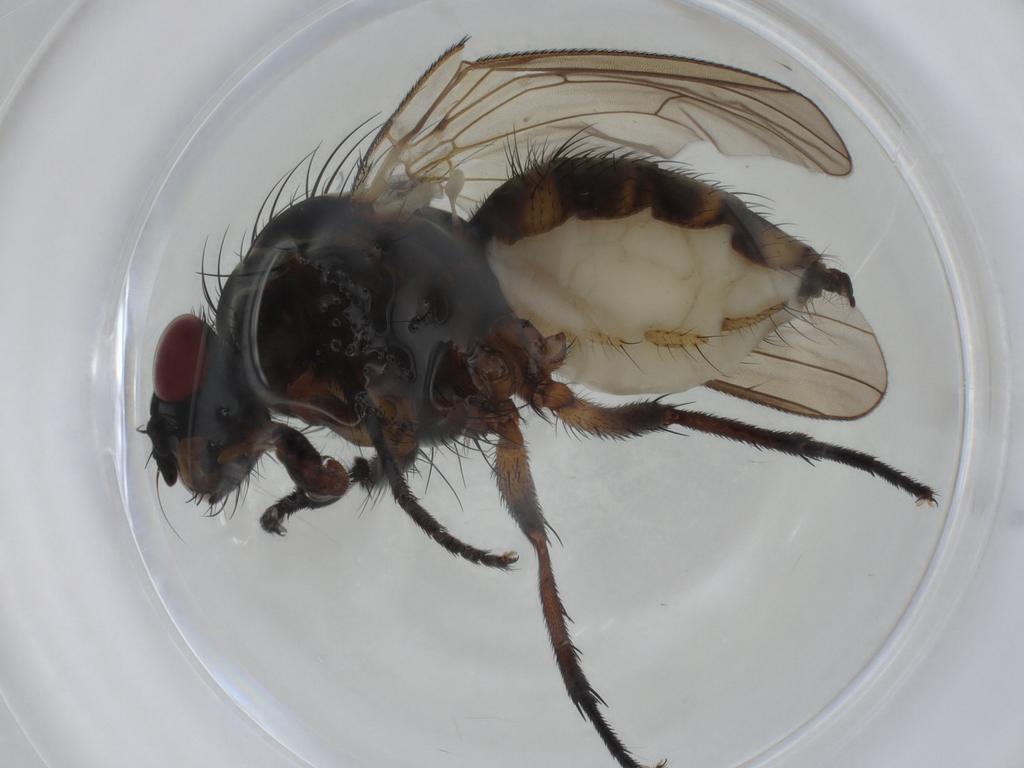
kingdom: Animalia
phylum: Arthropoda
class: Insecta
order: Diptera
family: Anthomyiidae
